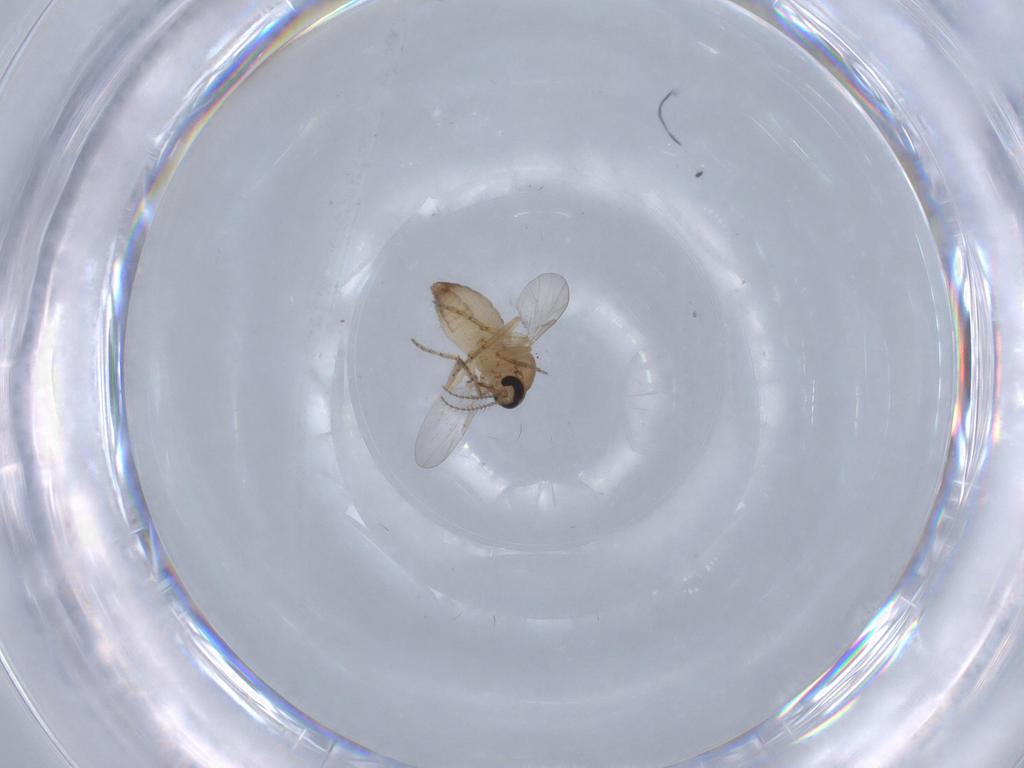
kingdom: Animalia
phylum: Arthropoda
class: Insecta
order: Diptera
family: Ceratopogonidae
